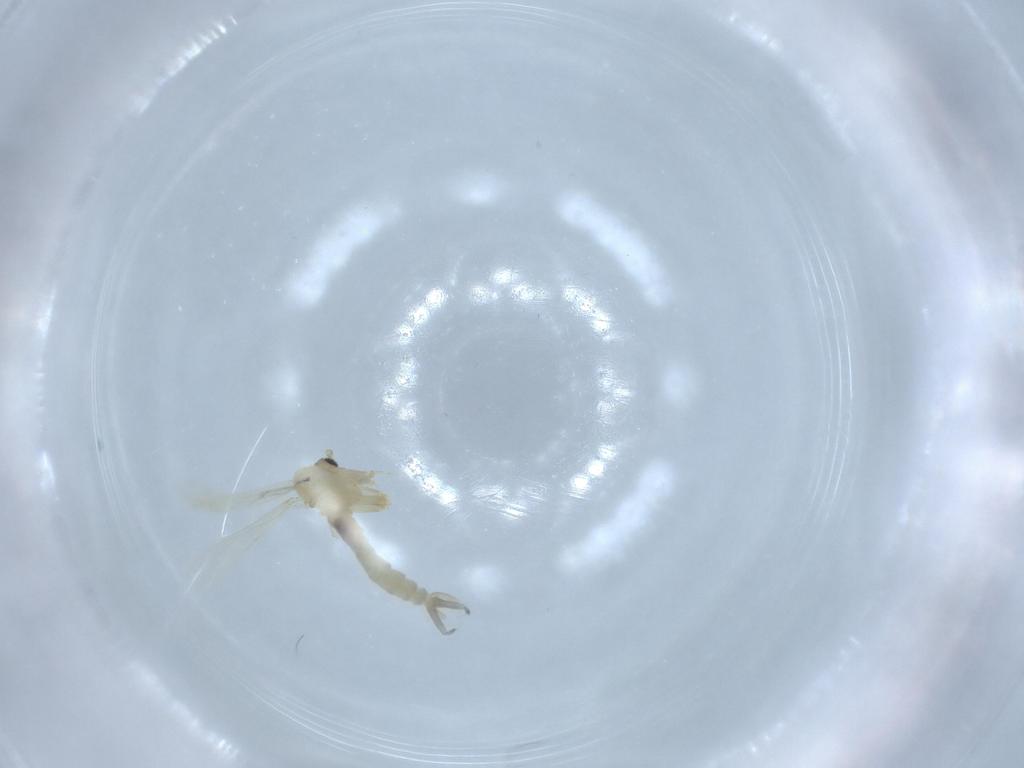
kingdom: Animalia
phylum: Arthropoda
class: Insecta
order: Diptera
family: Psychodidae
